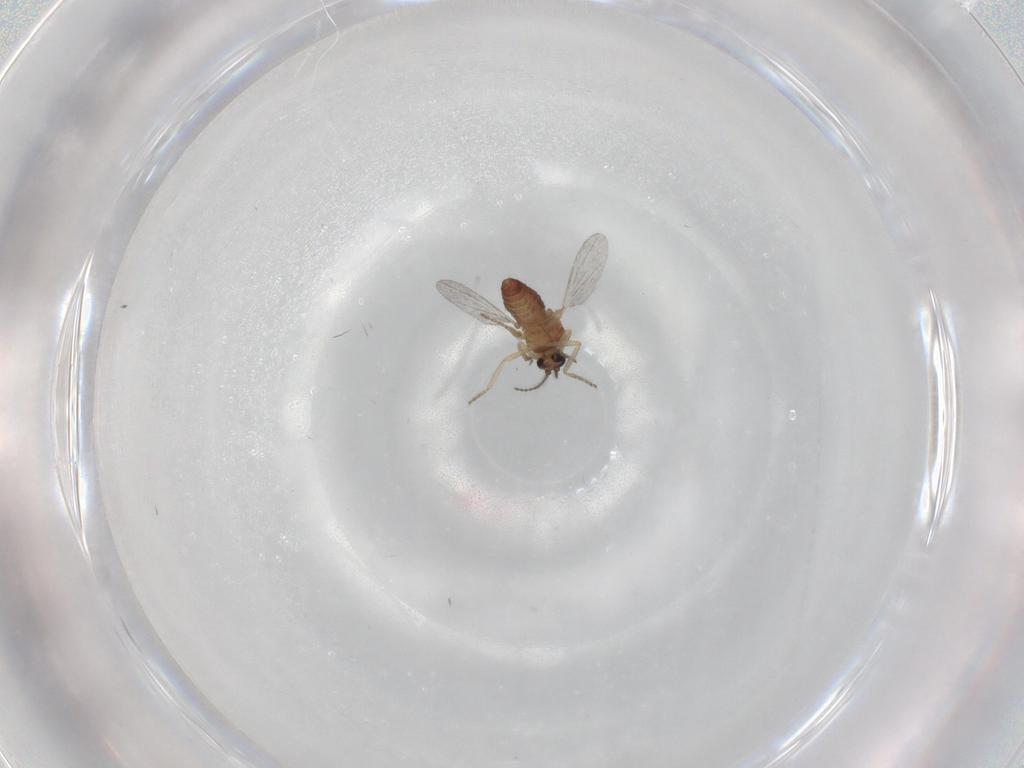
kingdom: Animalia
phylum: Arthropoda
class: Insecta
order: Diptera
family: Ceratopogonidae
